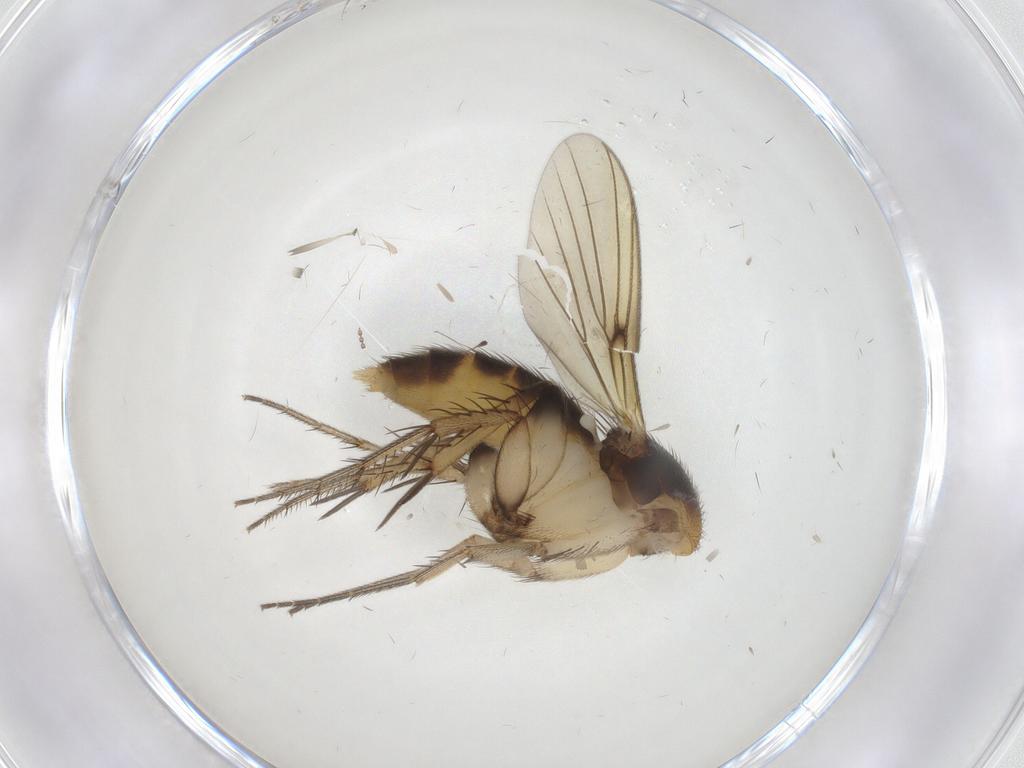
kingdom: Animalia
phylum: Arthropoda
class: Insecta
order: Diptera
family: Mycetophilidae
